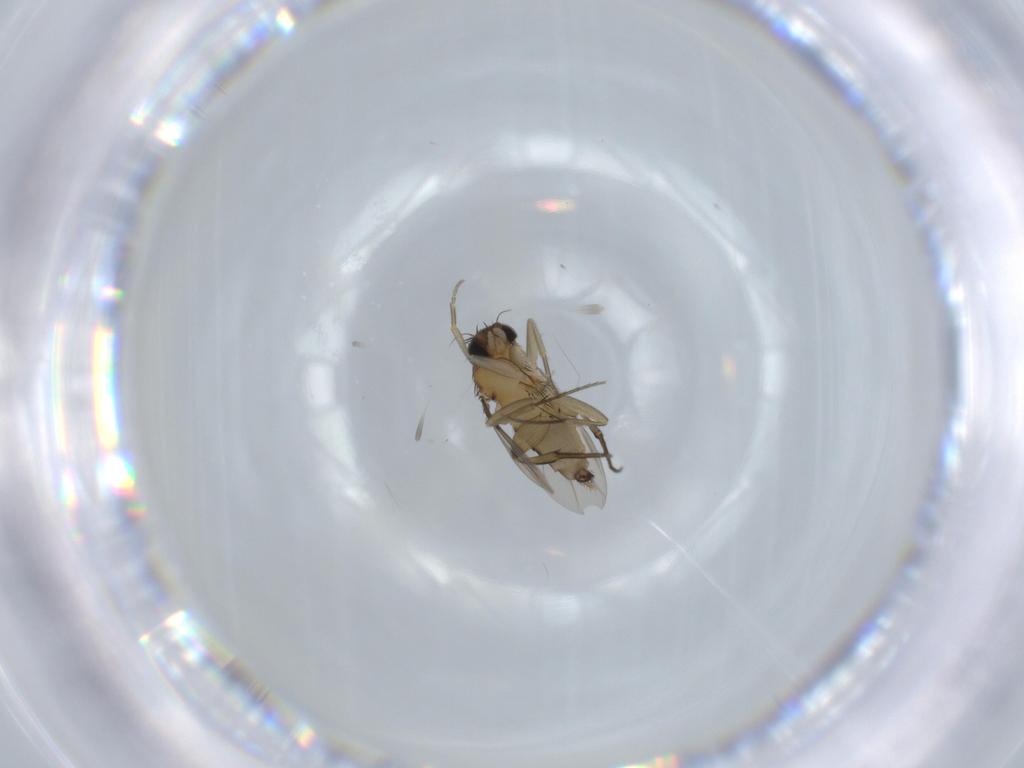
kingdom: Animalia
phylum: Arthropoda
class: Insecta
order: Diptera
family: Phoridae
